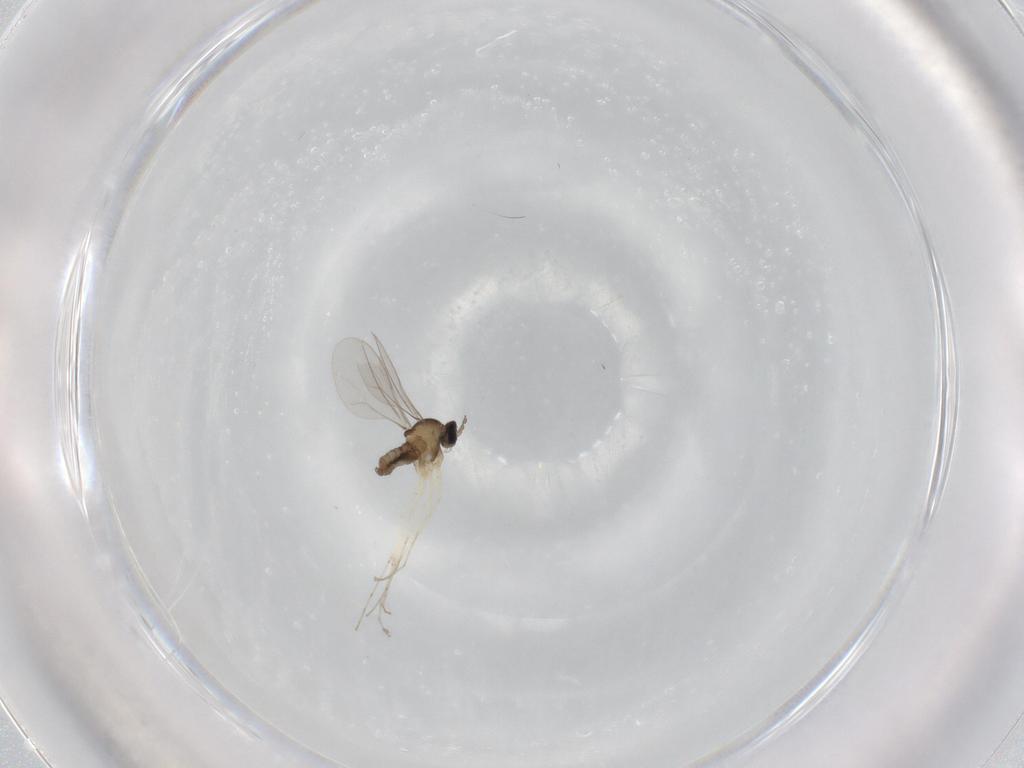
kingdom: Animalia
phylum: Arthropoda
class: Insecta
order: Diptera
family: Cecidomyiidae
